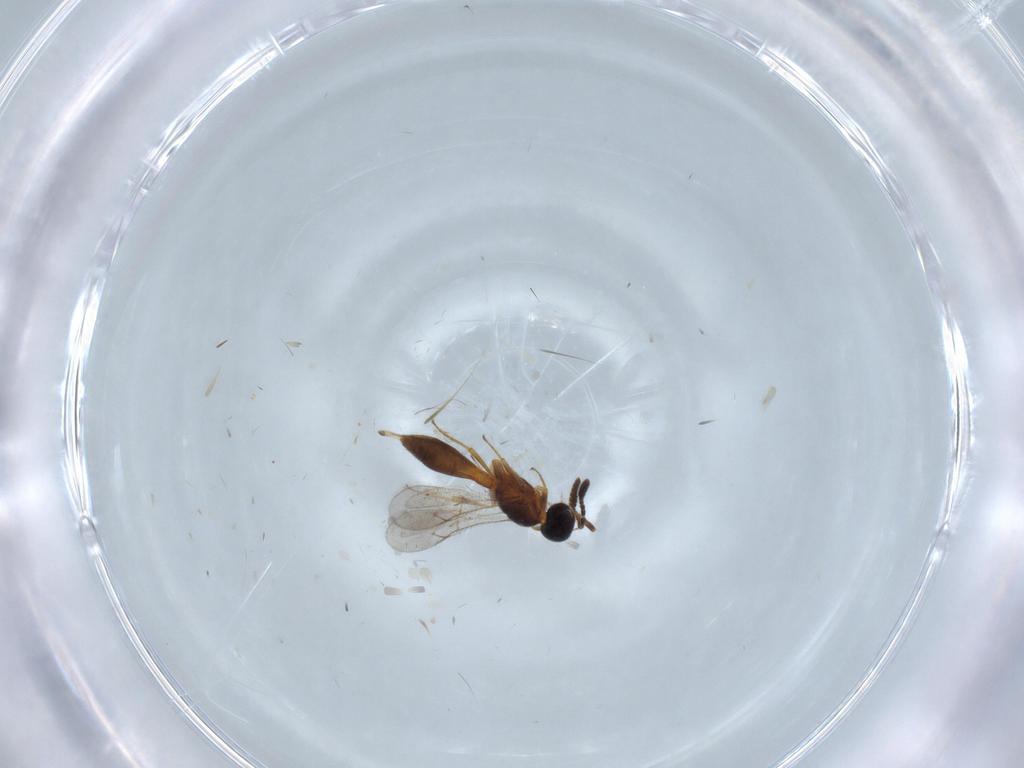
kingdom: Animalia
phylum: Arthropoda
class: Insecta
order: Hymenoptera
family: Scelionidae
